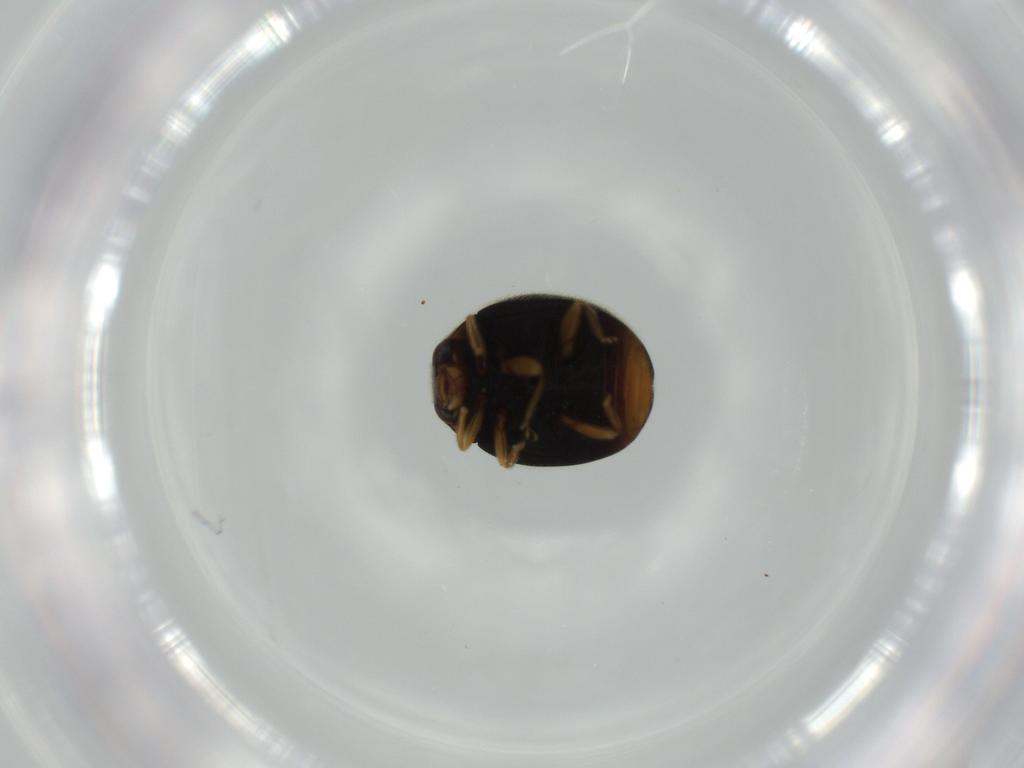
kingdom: Animalia
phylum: Arthropoda
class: Insecta
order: Coleoptera
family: Coccinellidae
